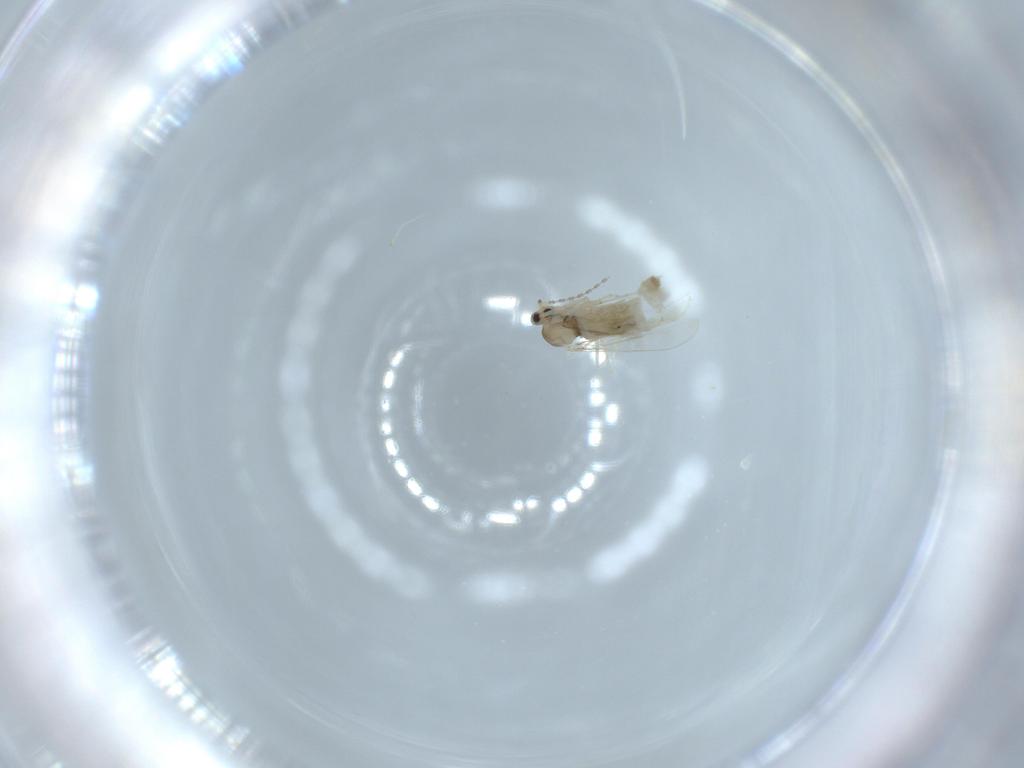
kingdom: Animalia
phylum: Arthropoda
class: Insecta
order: Diptera
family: Cecidomyiidae
